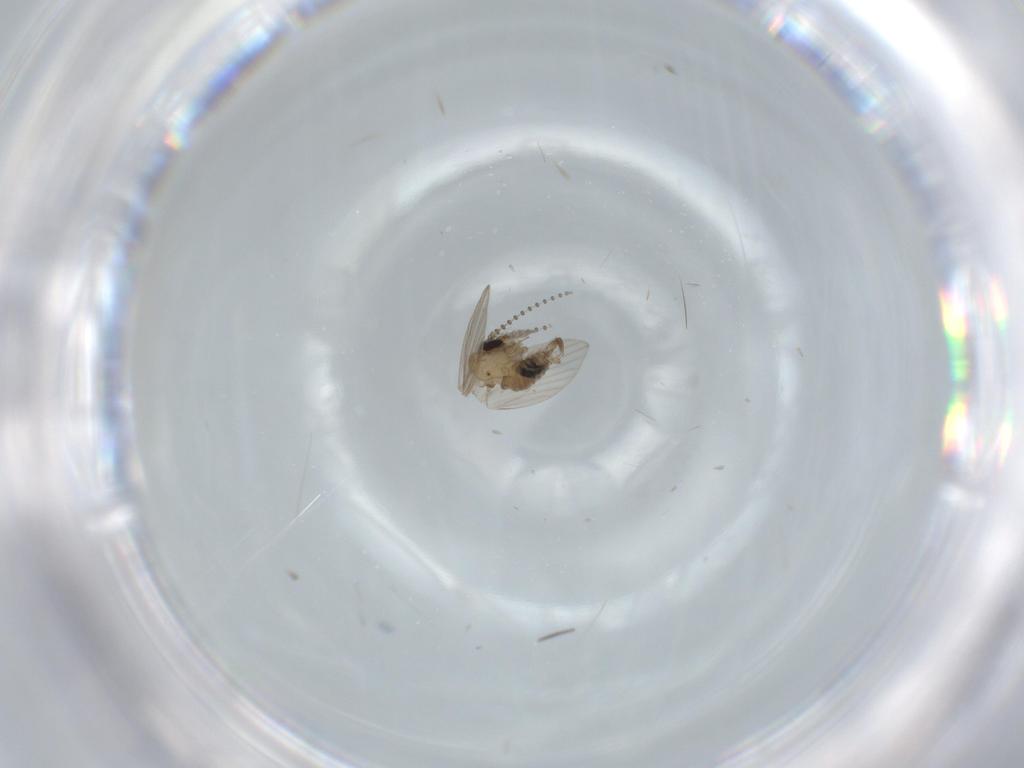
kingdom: Animalia
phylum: Arthropoda
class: Insecta
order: Diptera
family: Psychodidae
